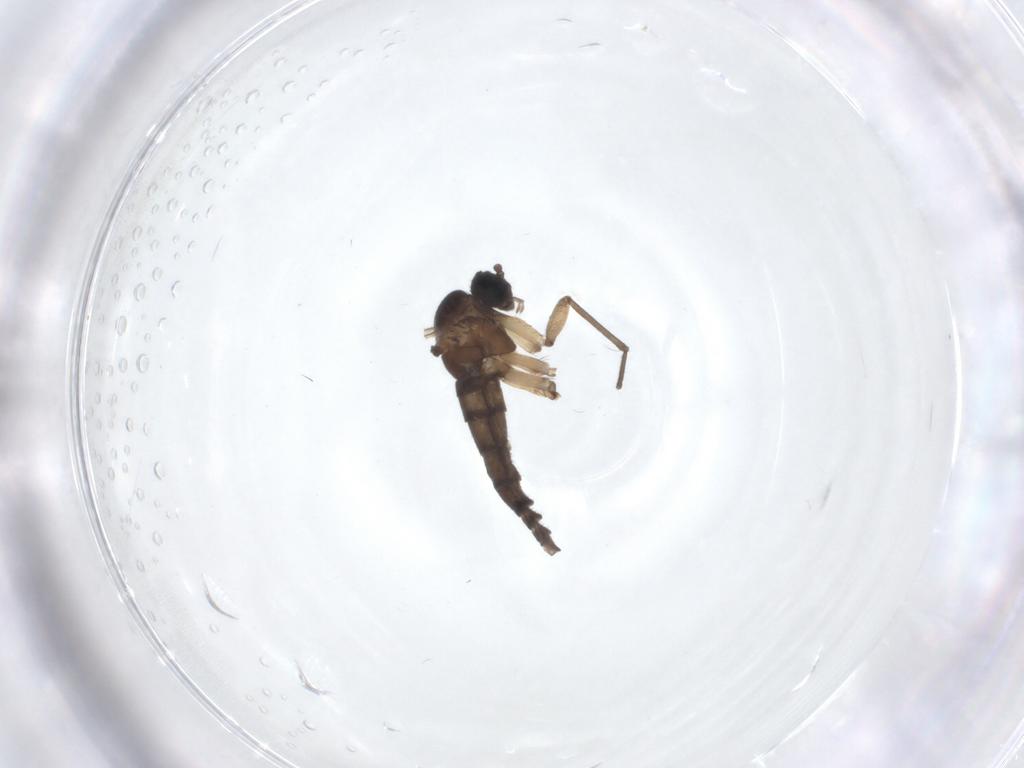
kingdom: Animalia
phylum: Arthropoda
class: Insecta
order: Diptera
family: Sciaridae
